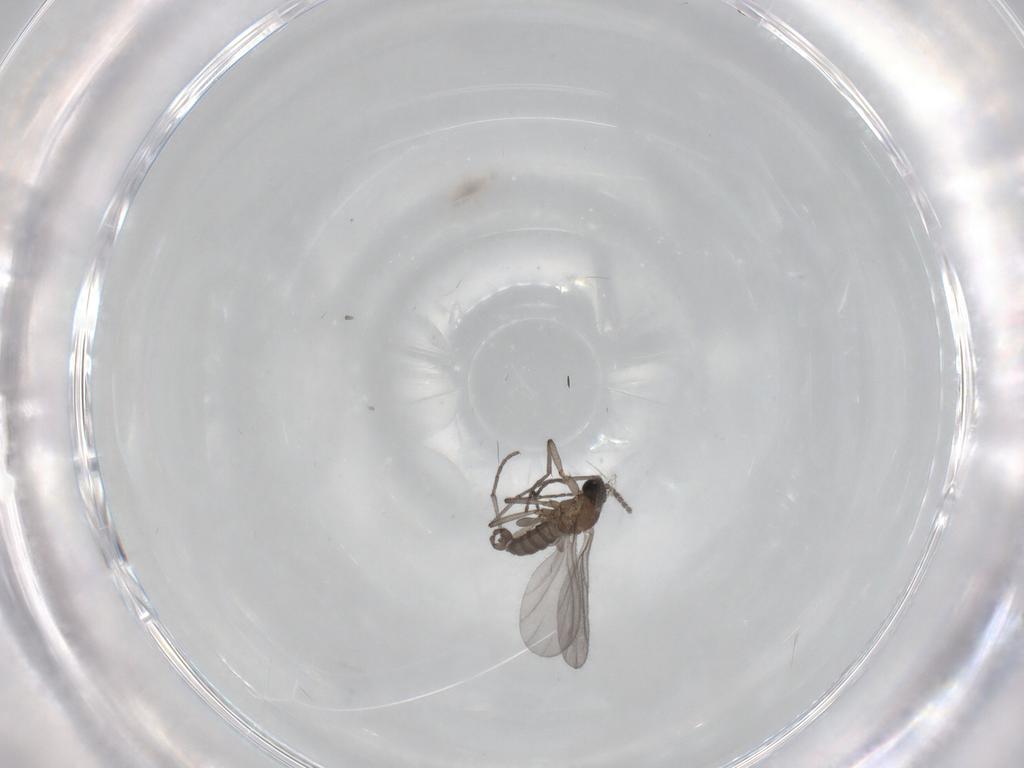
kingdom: Animalia
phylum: Arthropoda
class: Insecta
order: Diptera
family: Sciaridae
